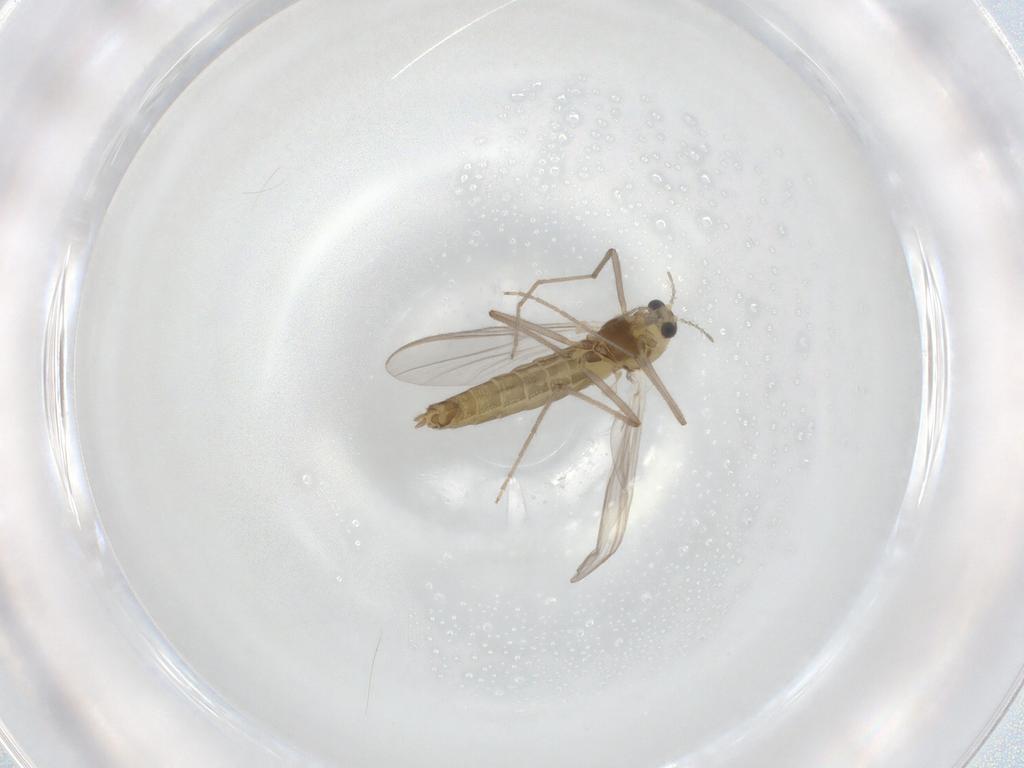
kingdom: Animalia
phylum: Arthropoda
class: Insecta
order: Diptera
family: Chironomidae
